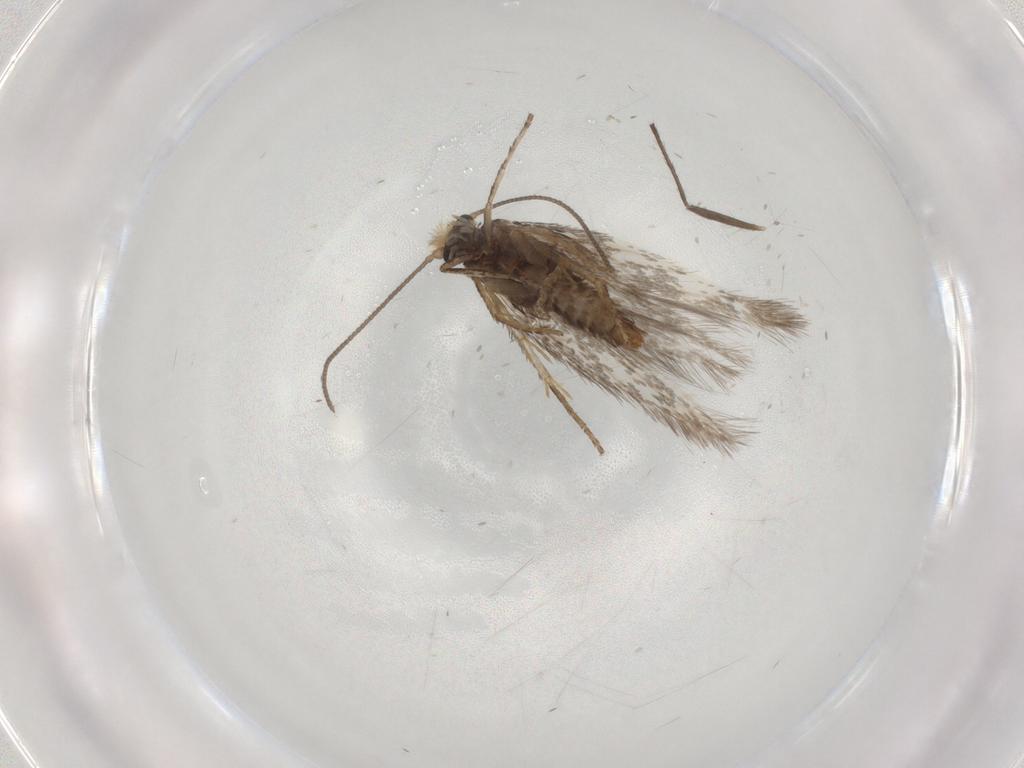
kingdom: Animalia
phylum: Arthropoda
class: Insecta
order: Lepidoptera
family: Nepticulidae
